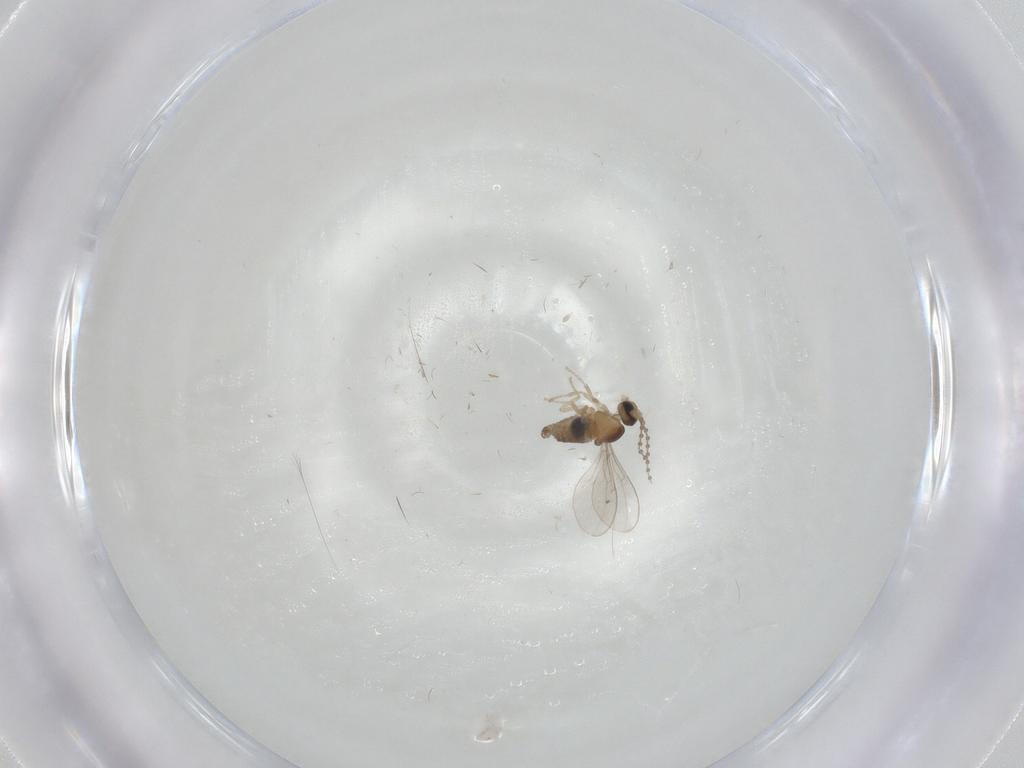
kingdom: Animalia
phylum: Arthropoda
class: Insecta
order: Diptera
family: Cecidomyiidae
